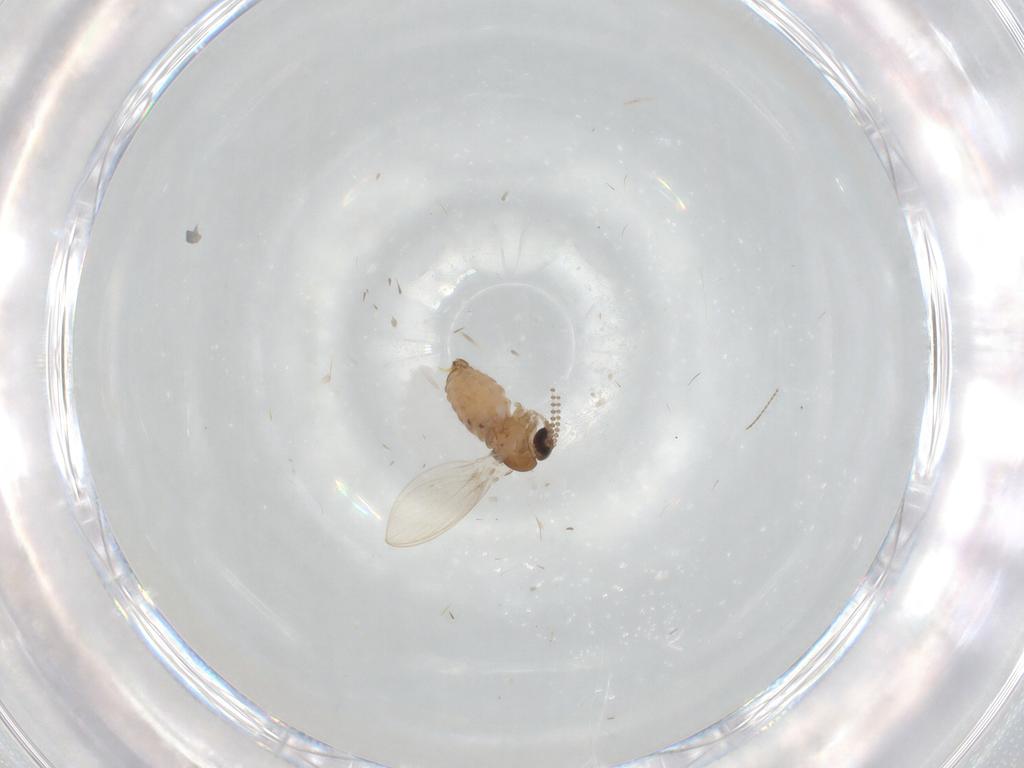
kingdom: Animalia
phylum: Arthropoda
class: Insecta
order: Diptera
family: Psychodidae
